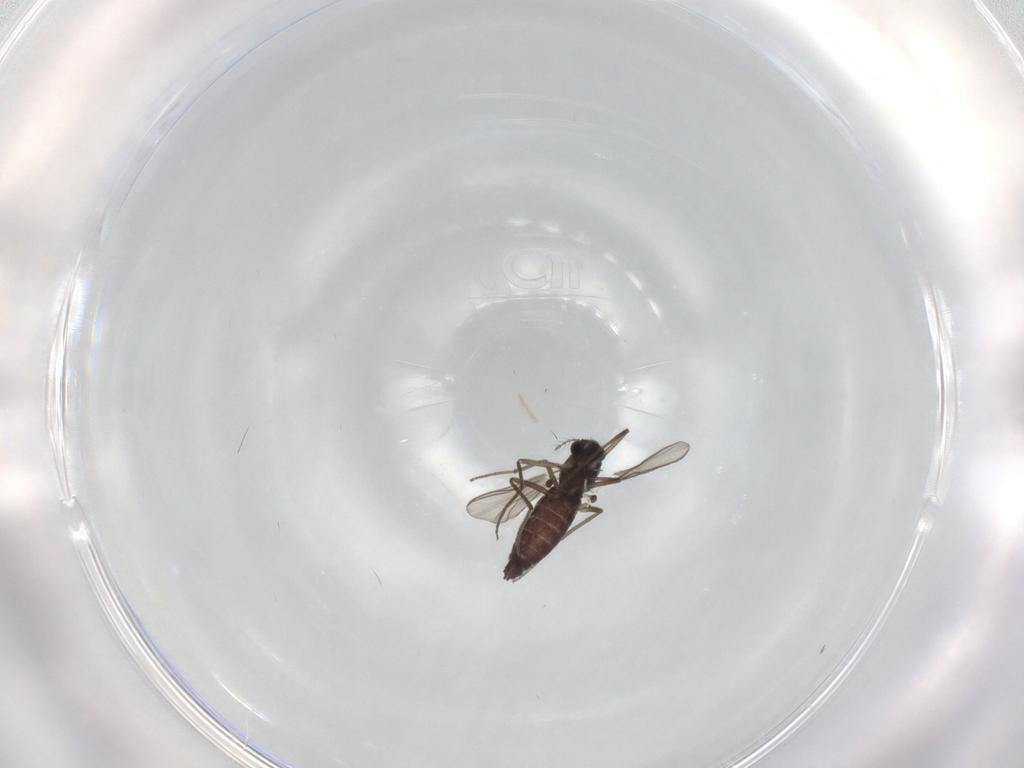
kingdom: Animalia
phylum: Arthropoda
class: Insecta
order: Diptera
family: Chironomidae
